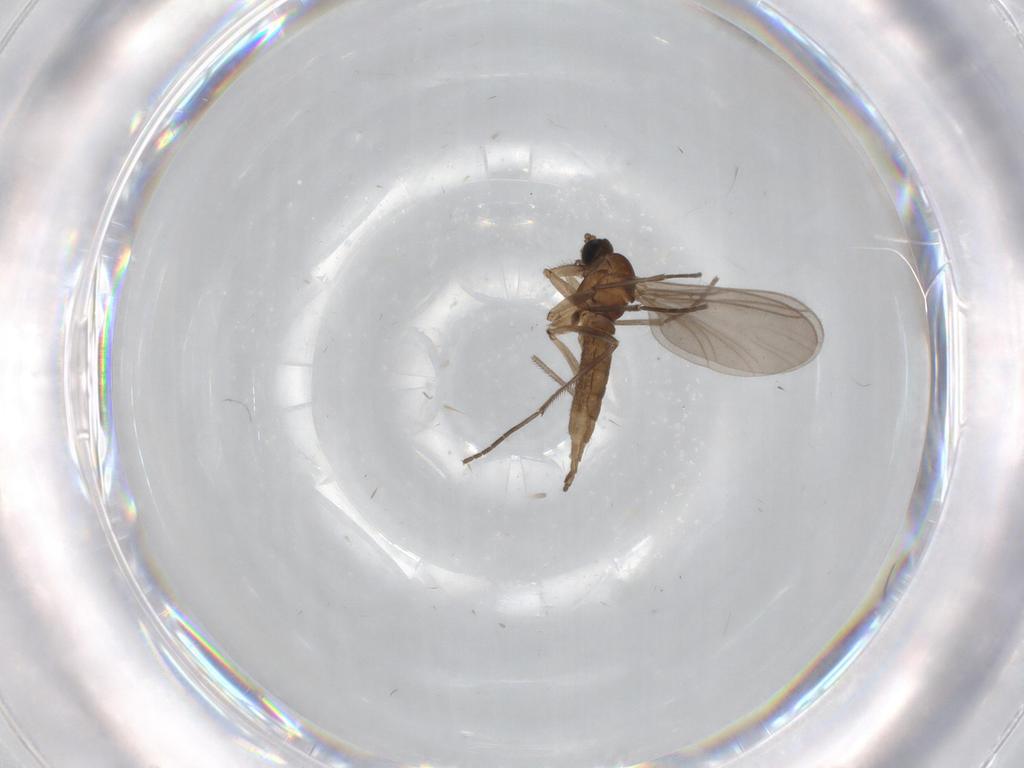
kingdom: Animalia
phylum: Arthropoda
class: Insecta
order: Diptera
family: Sciaridae
